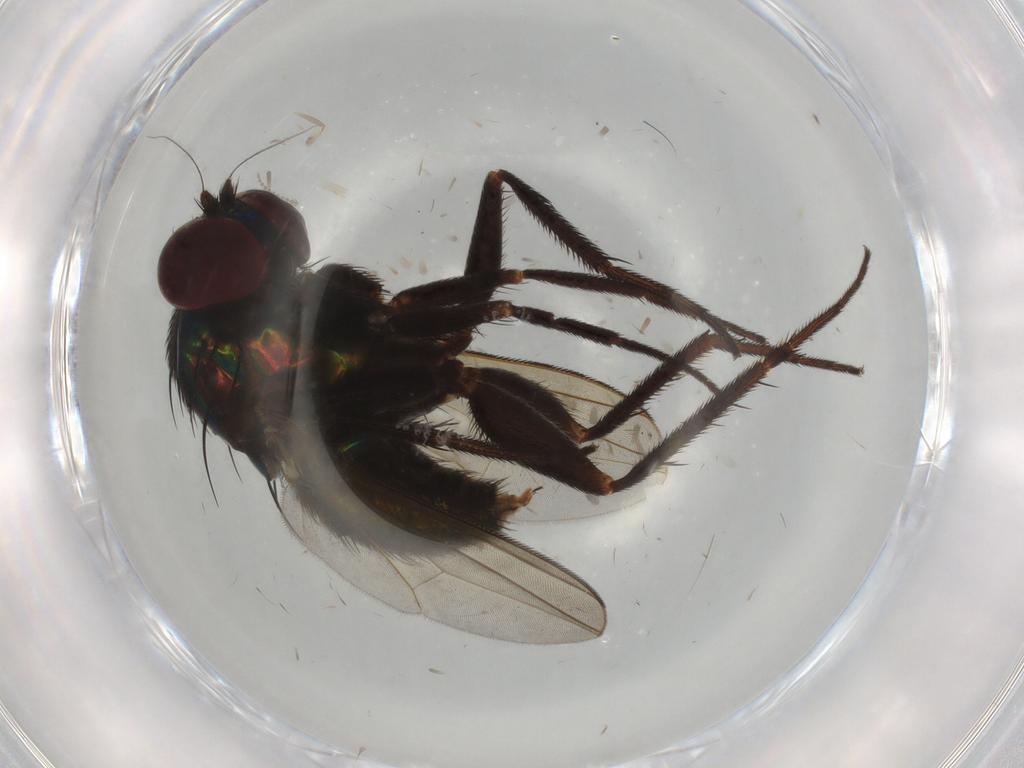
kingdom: Animalia
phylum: Arthropoda
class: Insecta
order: Diptera
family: Dolichopodidae
